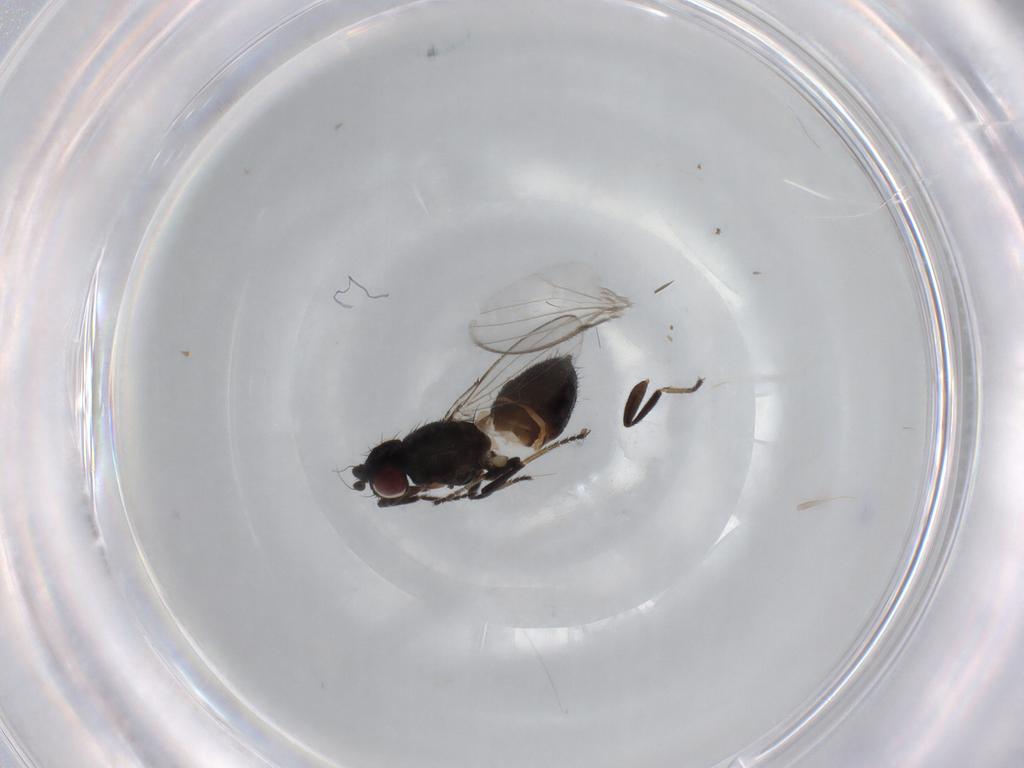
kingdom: Animalia
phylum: Arthropoda
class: Insecta
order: Diptera
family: Milichiidae
